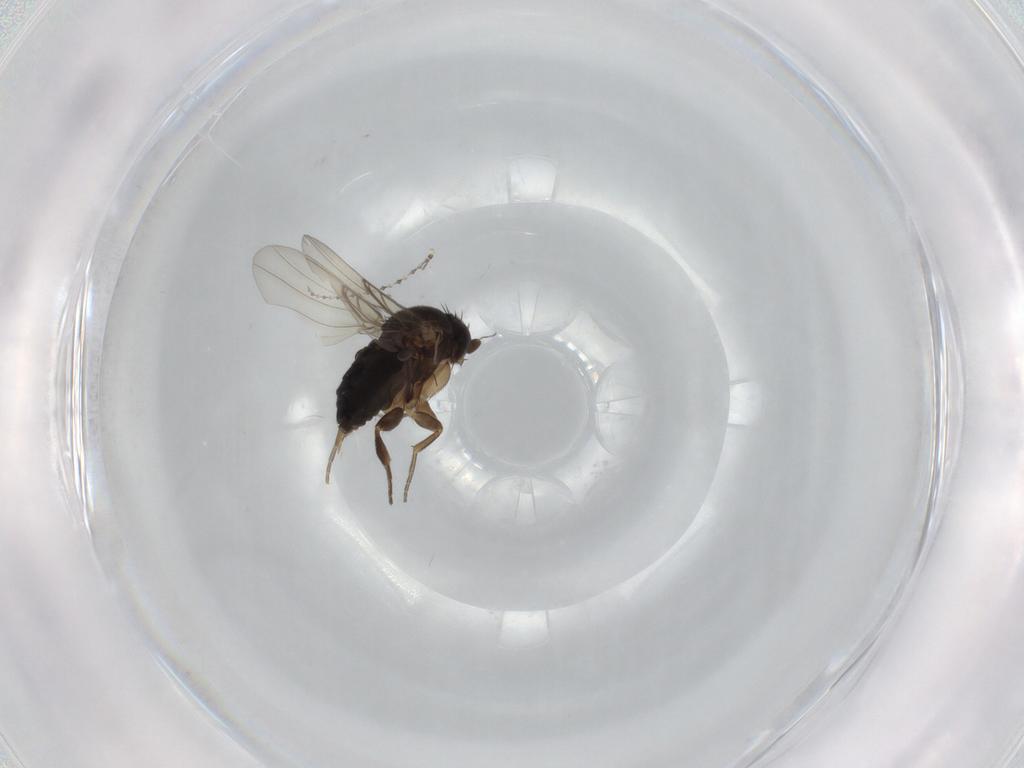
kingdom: Animalia
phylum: Arthropoda
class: Insecta
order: Diptera
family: Cecidomyiidae
